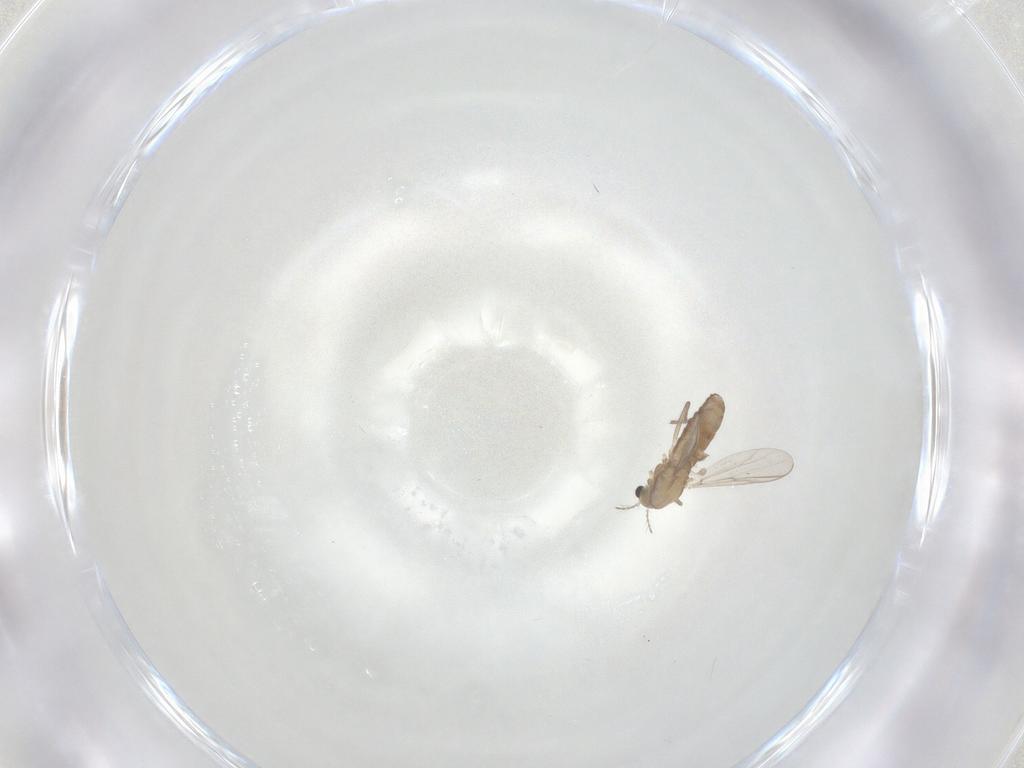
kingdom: Animalia
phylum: Arthropoda
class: Insecta
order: Diptera
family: Chironomidae
